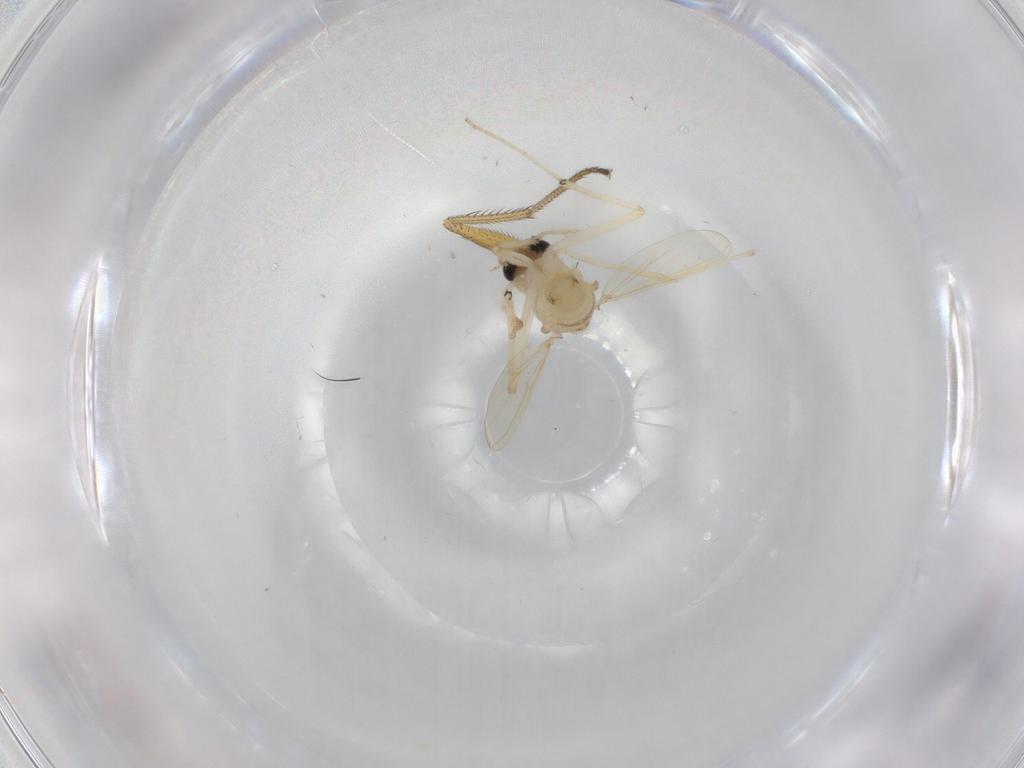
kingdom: Animalia
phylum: Arthropoda
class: Insecta
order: Diptera
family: Chironomidae
